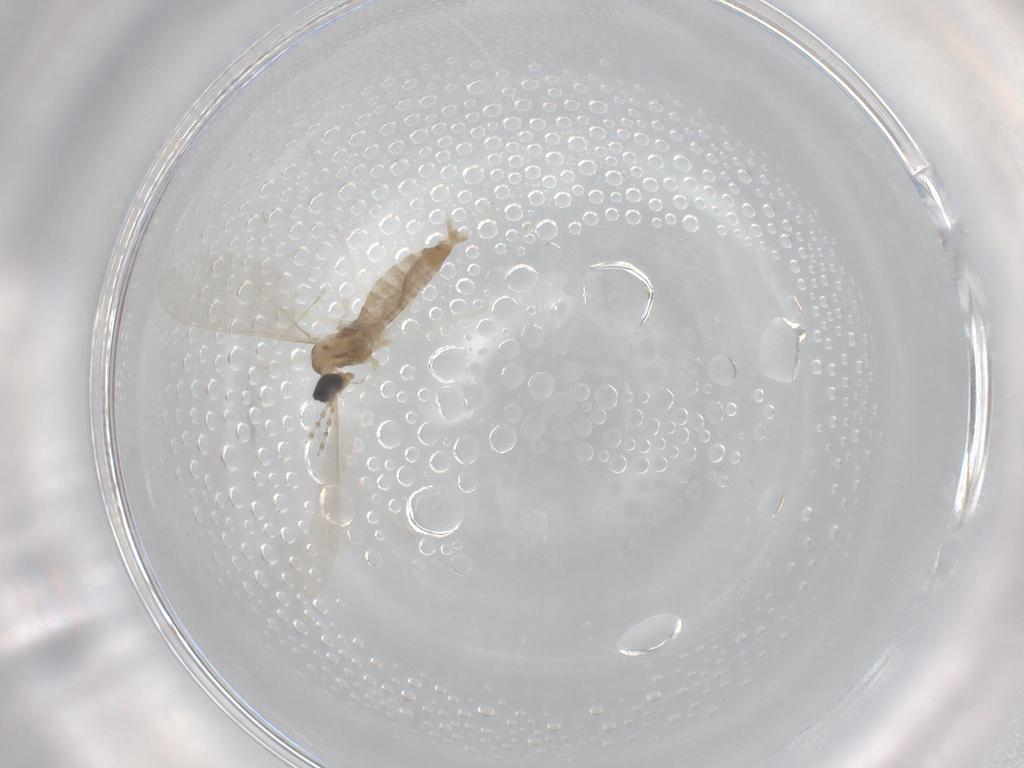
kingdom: Animalia
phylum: Arthropoda
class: Insecta
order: Diptera
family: Cecidomyiidae
